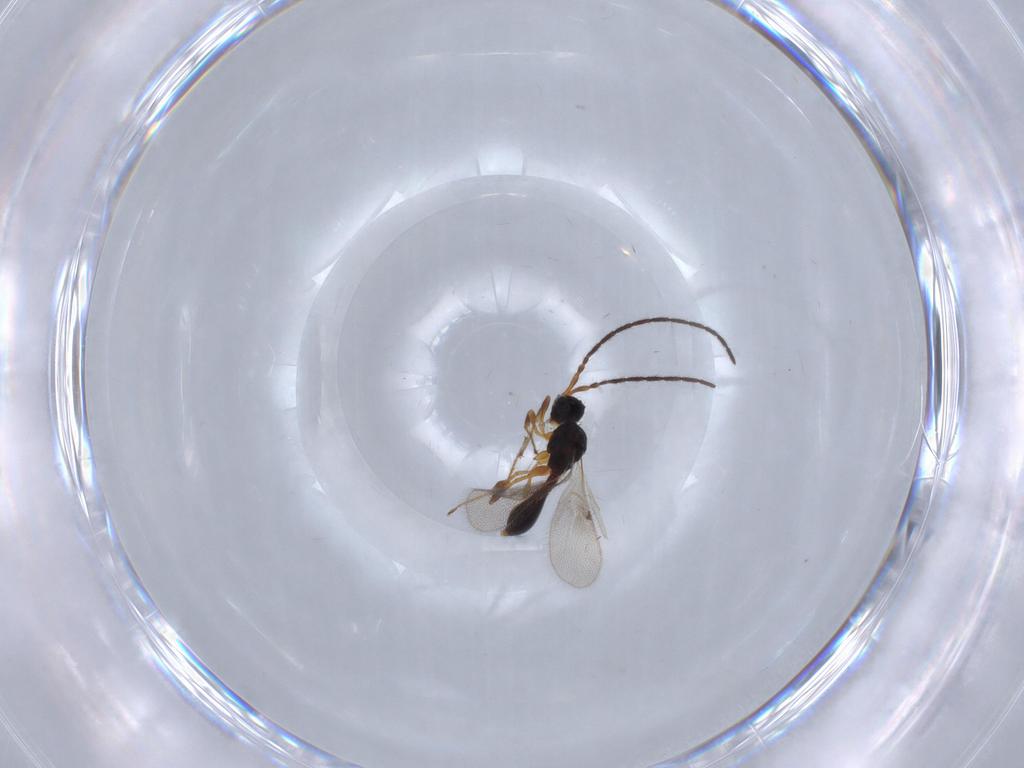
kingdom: Animalia
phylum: Arthropoda
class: Insecta
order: Hymenoptera
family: Diapriidae
